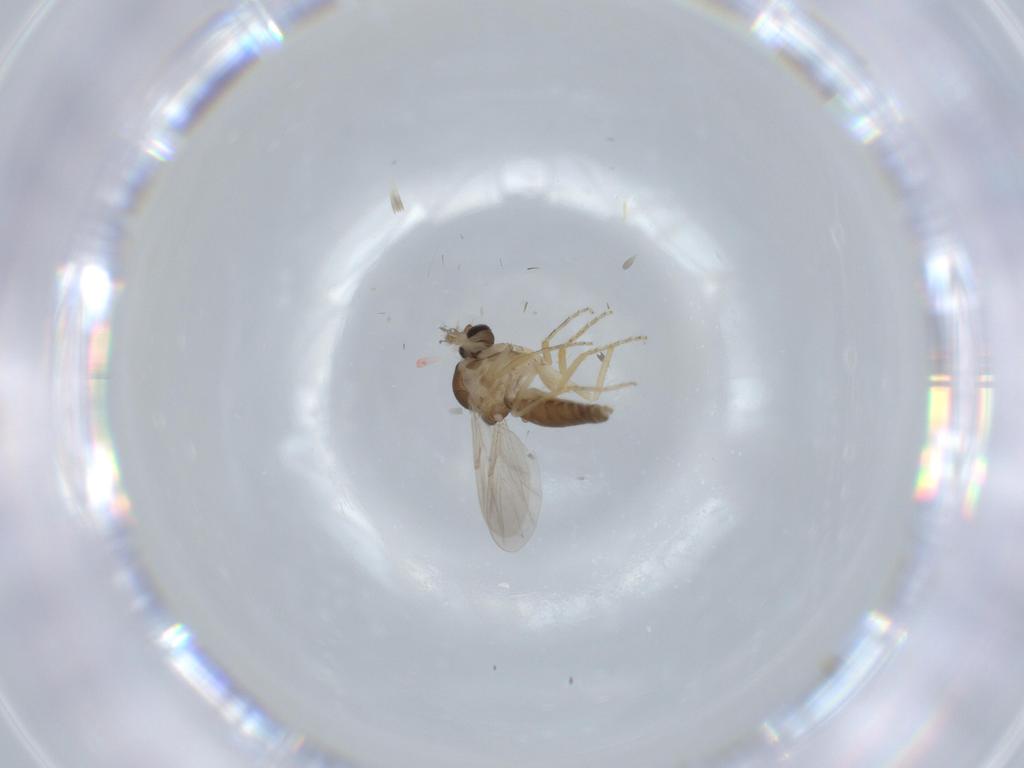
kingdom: Animalia
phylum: Arthropoda
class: Insecta
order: Diptera
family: Ceratopogonidae
